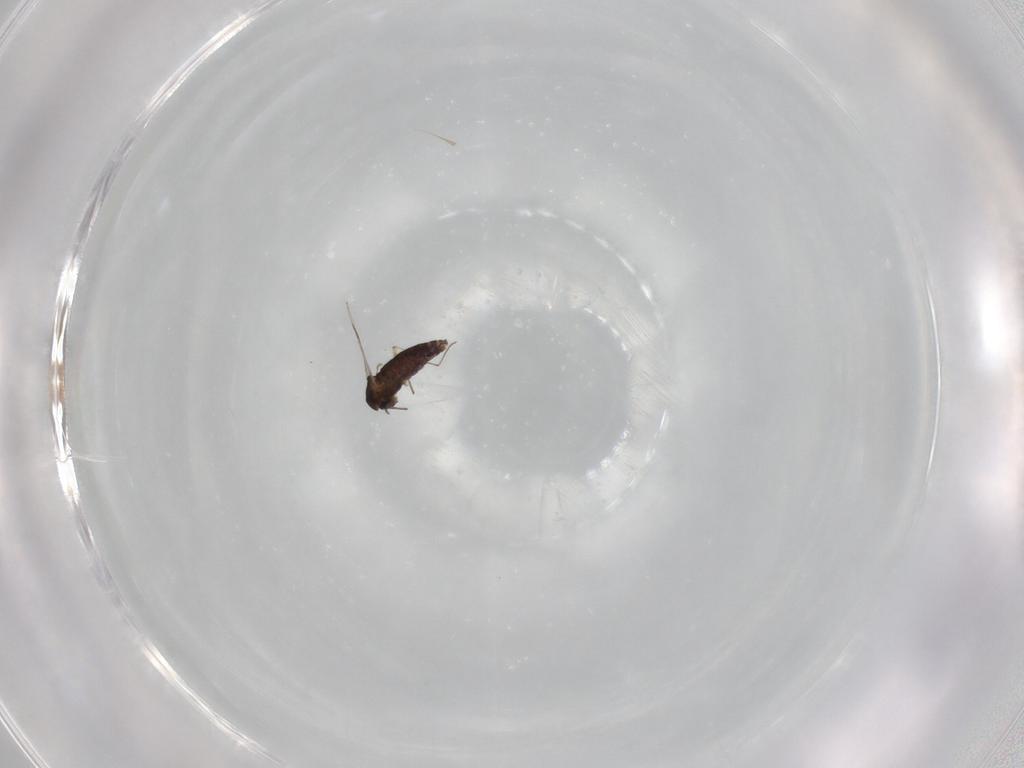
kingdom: Animalia
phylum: Arthropoda
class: Insecta
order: Diptera
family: Chironomidae
